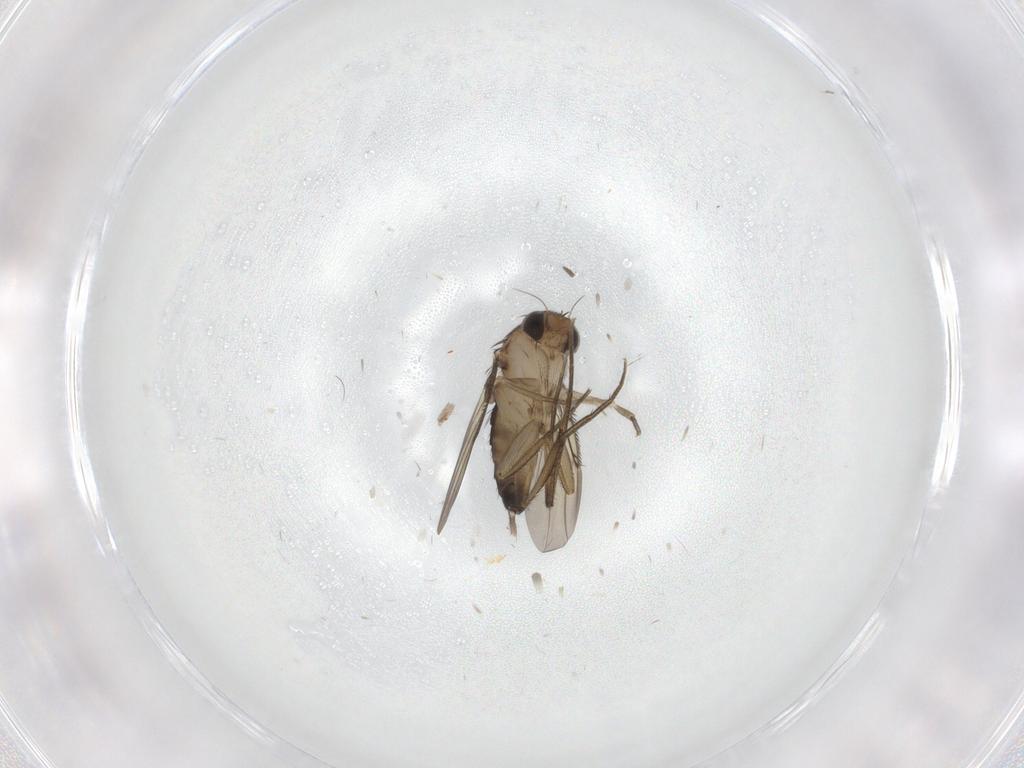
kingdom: Animalia
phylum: Arthropoda
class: Insecta
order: Diptera
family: Phoridae
